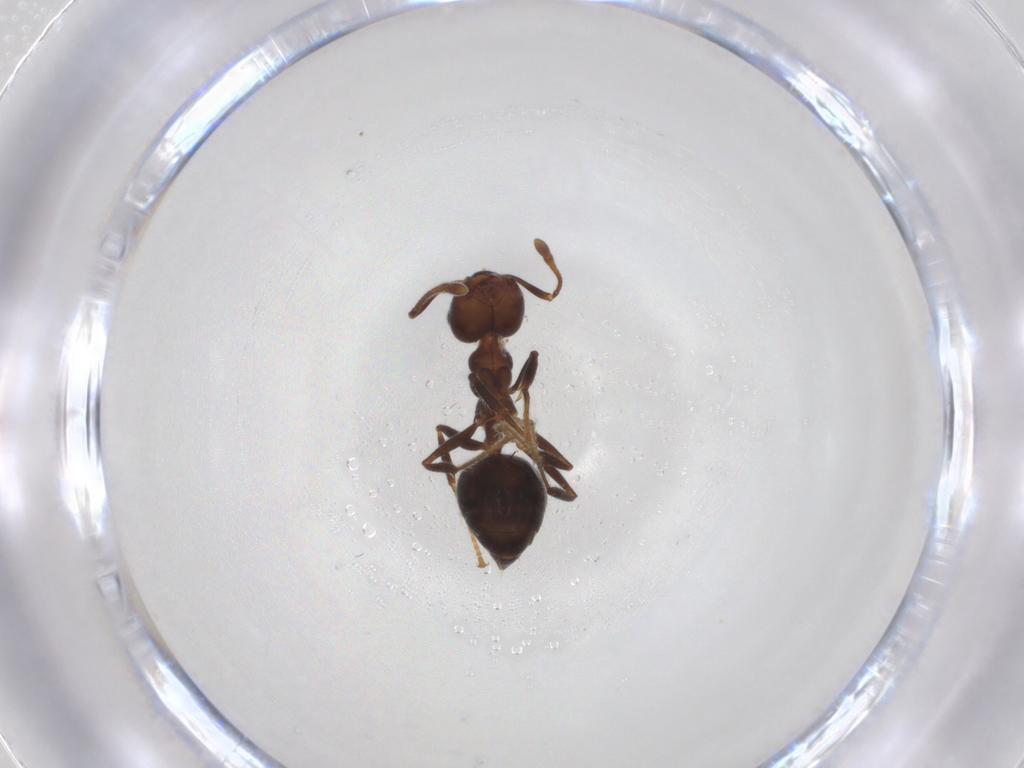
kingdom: Animalia
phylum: Arthropoda
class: Insecta
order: Hymenoptera
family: Formicidae
